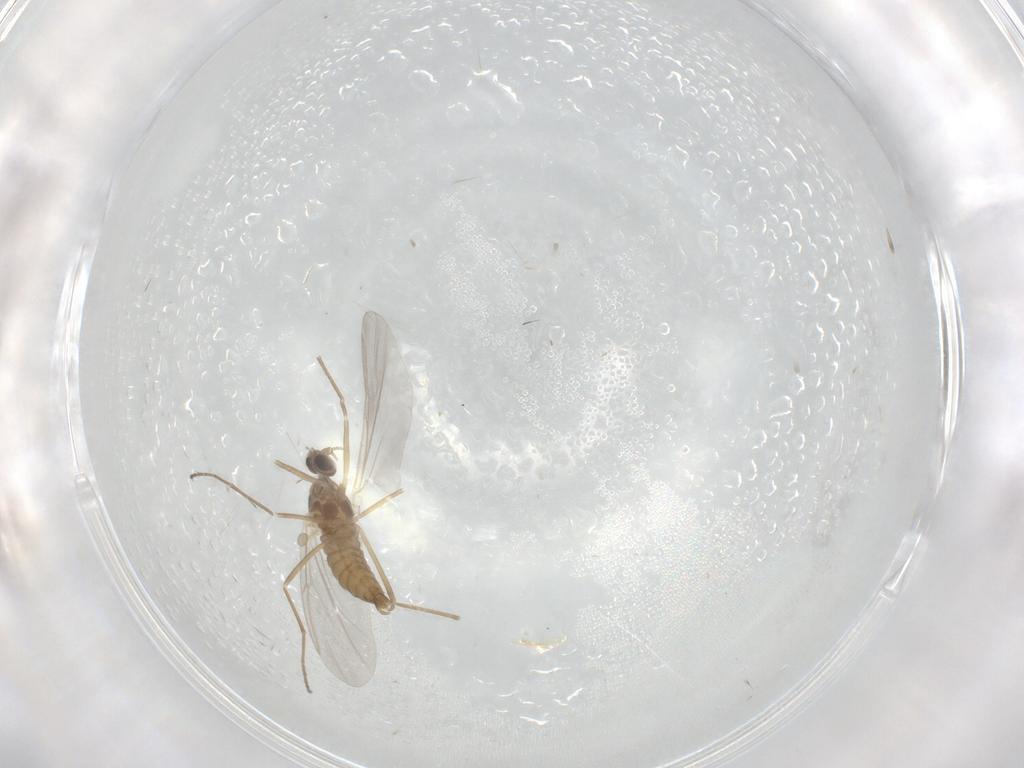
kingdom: Animalia
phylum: Arthropoda
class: Insecta
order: Diptera
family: Cecidomyiidae
